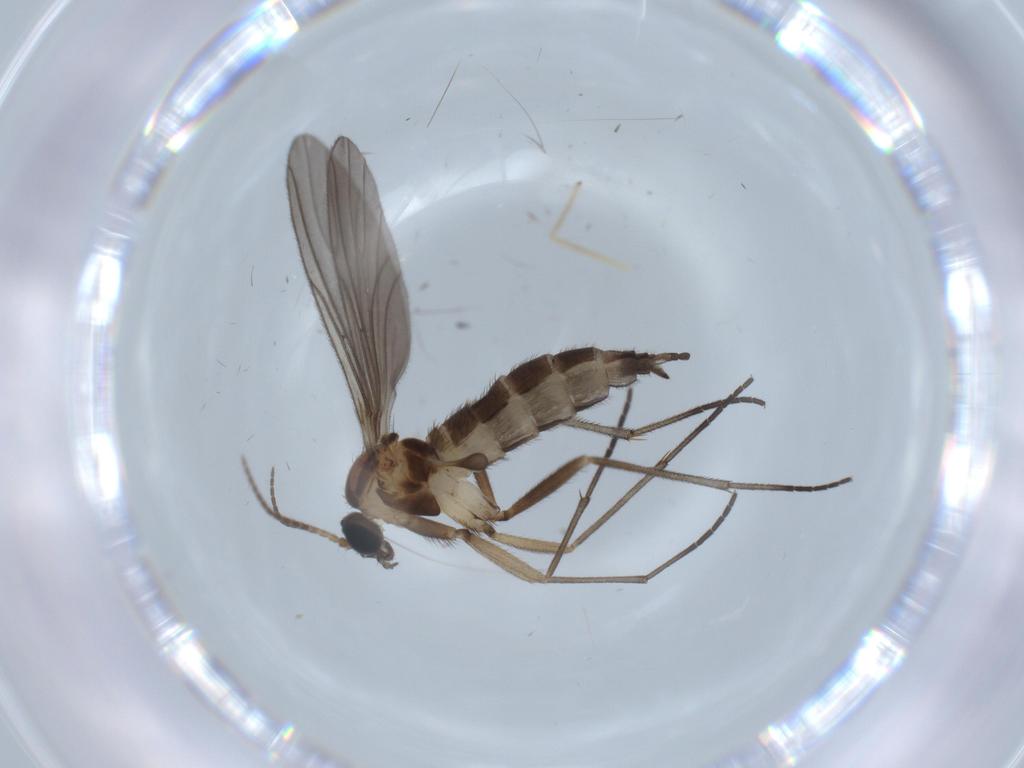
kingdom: Animalia
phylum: Arthropoda
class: Insecta
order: Diptera
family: Sciaridae
